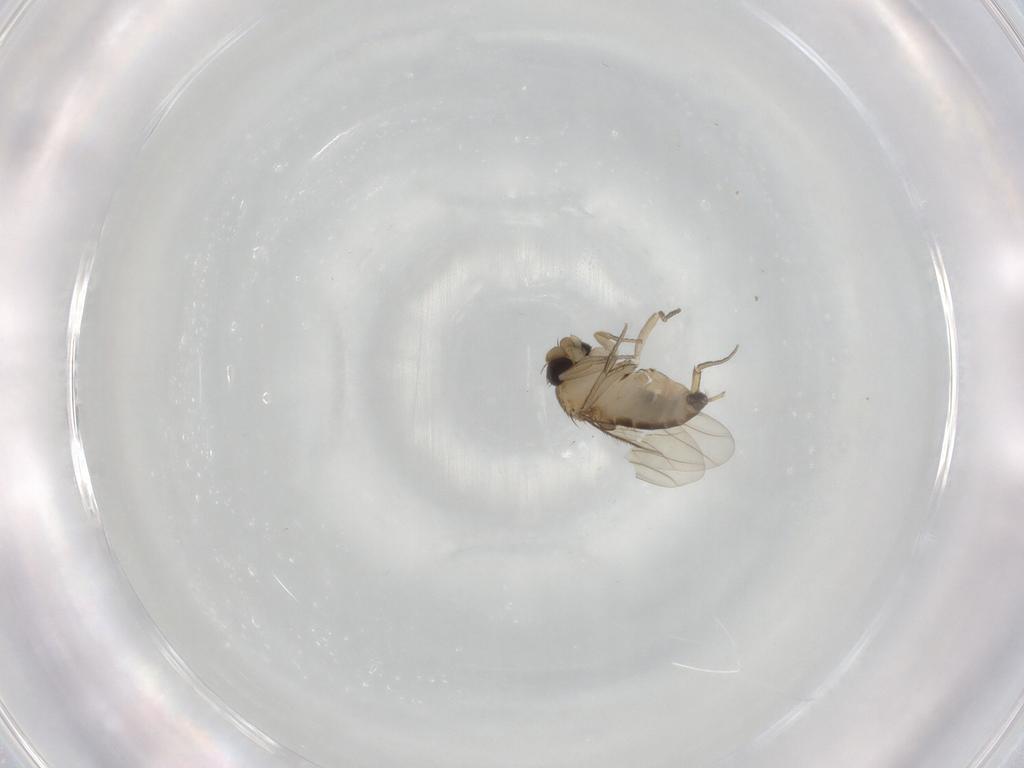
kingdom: Animalia
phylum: Arthropoda
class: Insecta
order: Diptera
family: Phoridae
